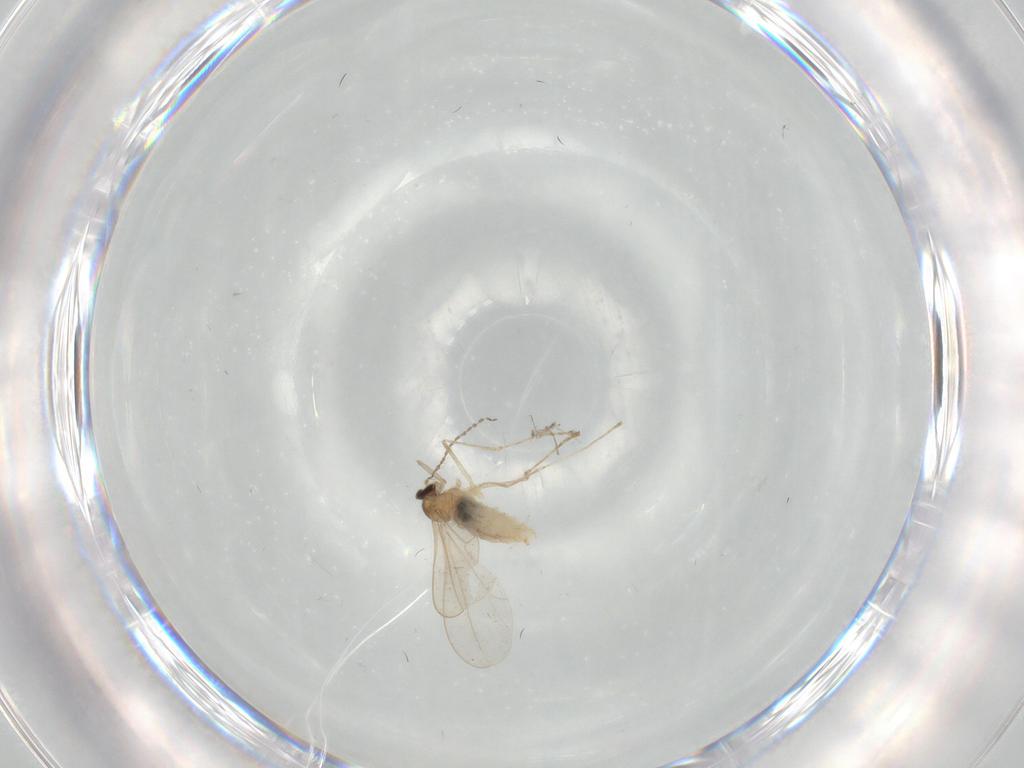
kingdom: Animalia
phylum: Arthropoda
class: Insecta
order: Diptera
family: Cecidomyiidae
